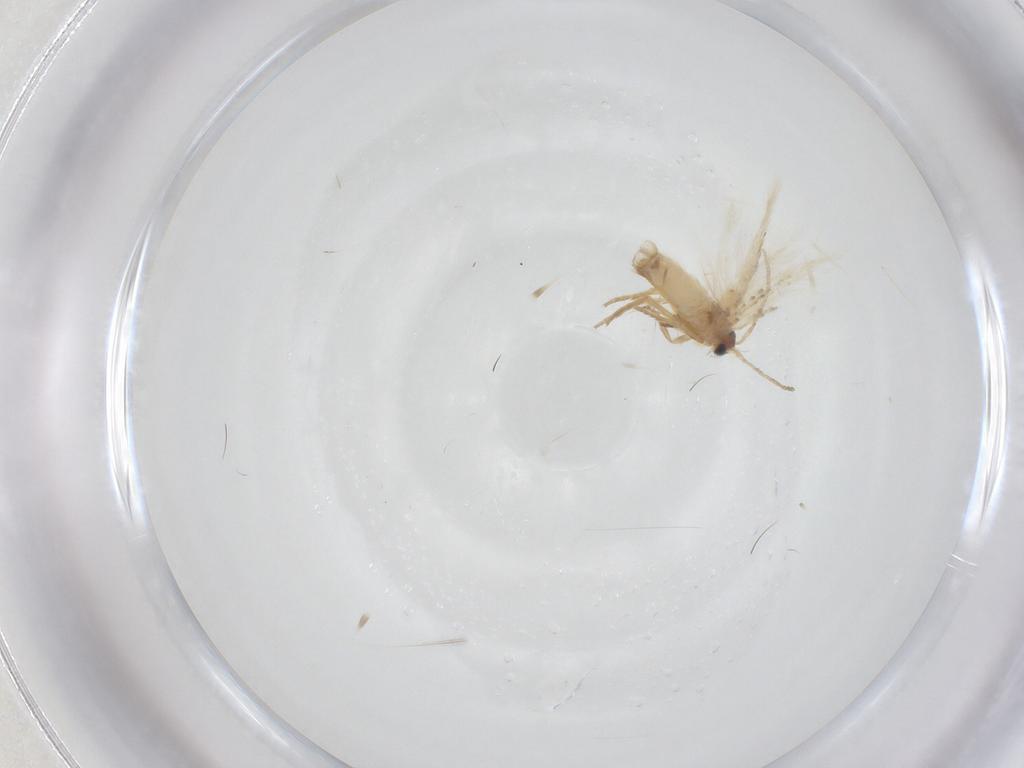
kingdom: Animalia
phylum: Arthropoda
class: Insecta
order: Lepidoptera
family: Nepticulidae
